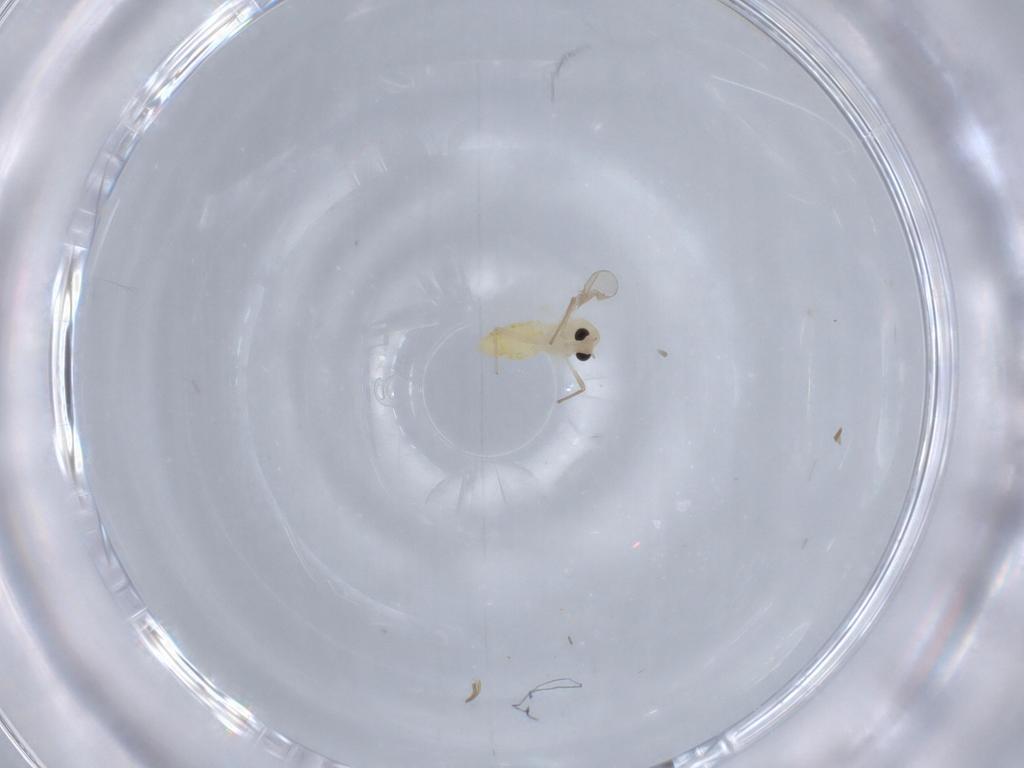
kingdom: Animalia
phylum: Arthropoda
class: Insecta
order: Diptera
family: Psychodidae
